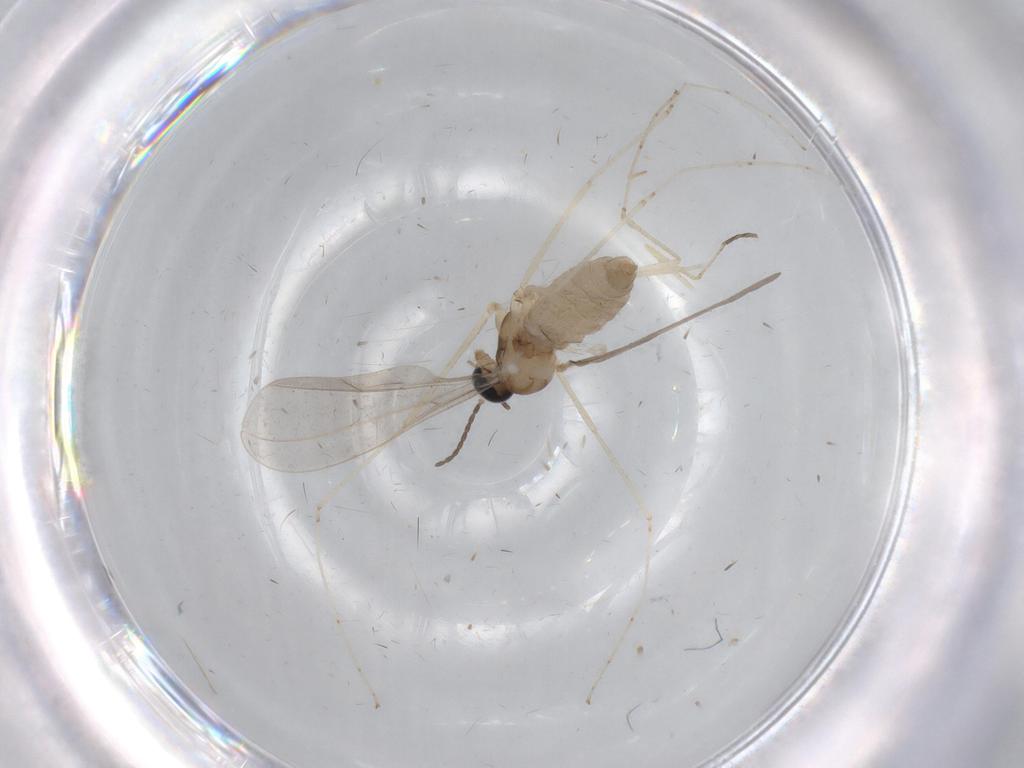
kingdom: Animalia
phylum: Arthropoda
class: Insecta
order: Diptera
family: Cecidomyiidae
